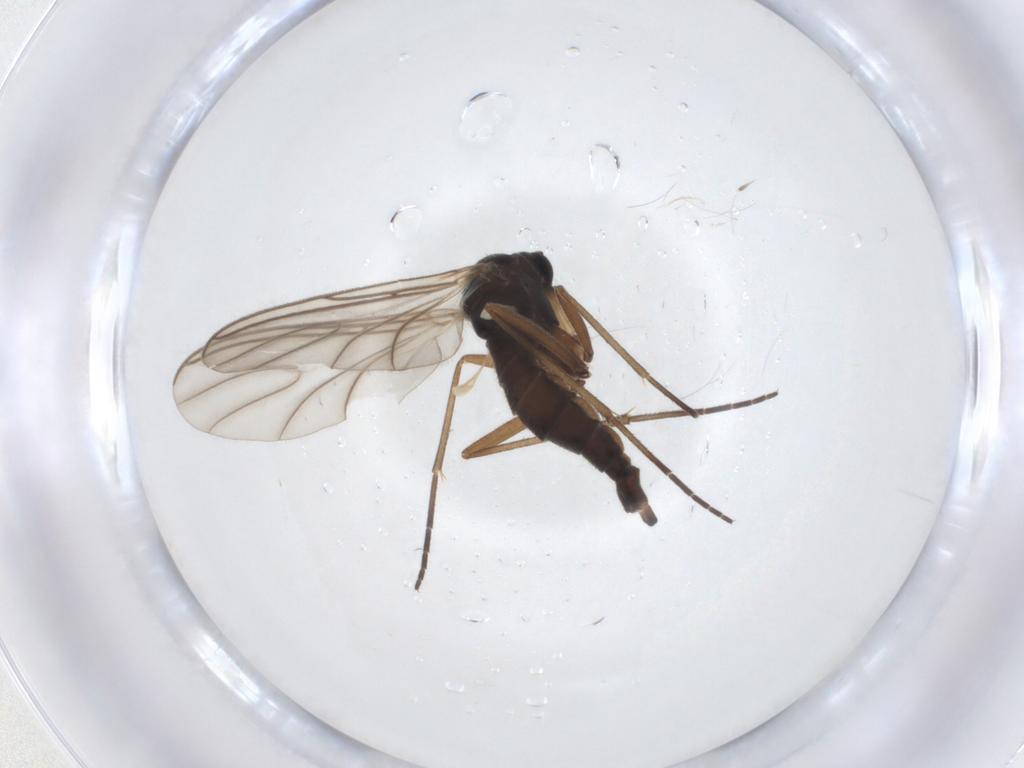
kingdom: Animalia
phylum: Arthropoda
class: Insecta
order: Diptera
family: Sciaridae
